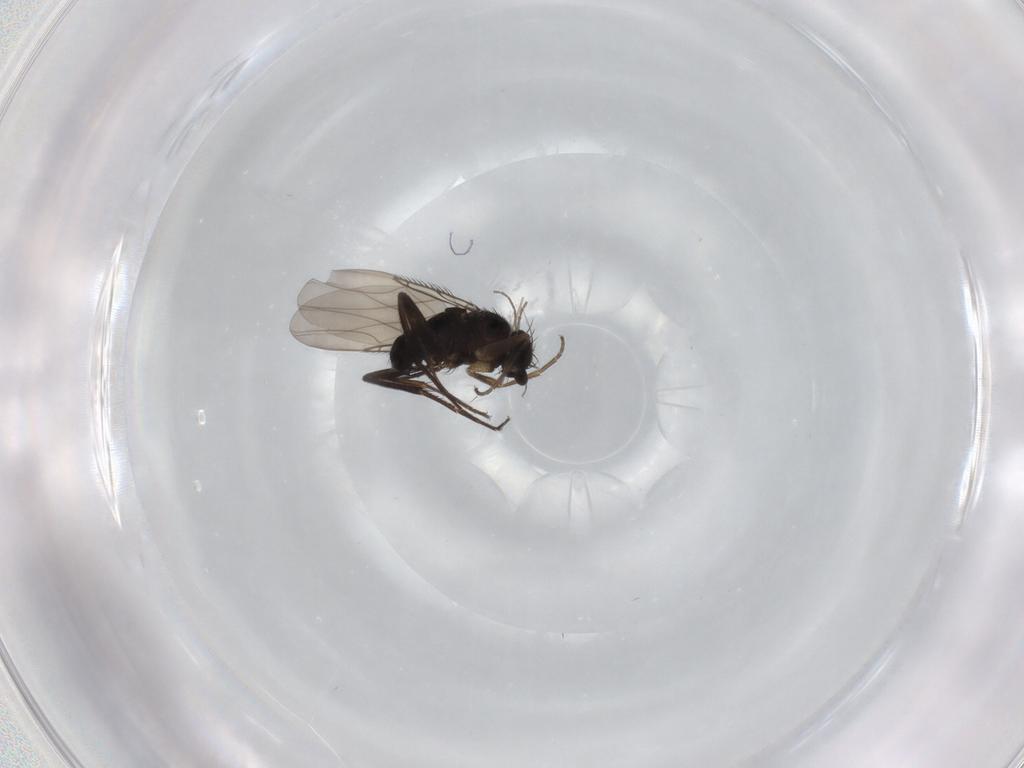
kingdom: Animalia
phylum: Arthropoda
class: Insecta
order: Diptera
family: Phoridae
